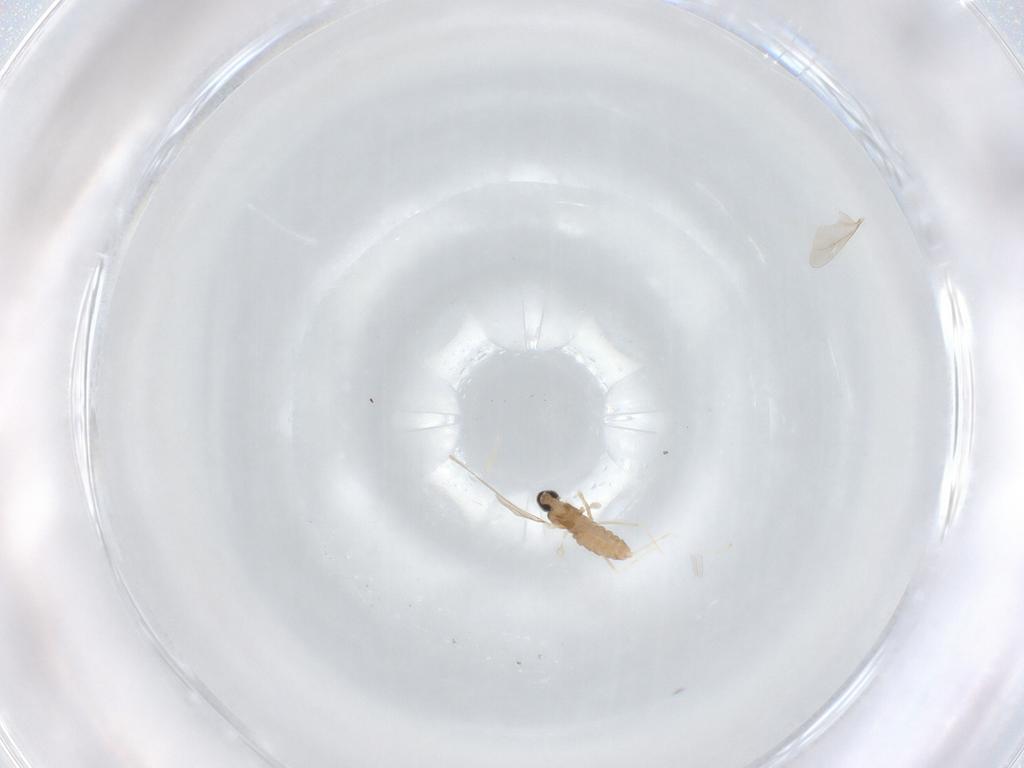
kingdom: Animalia
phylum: Arthropoda
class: Insecta
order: Diptera
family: Cecidomyiidae
